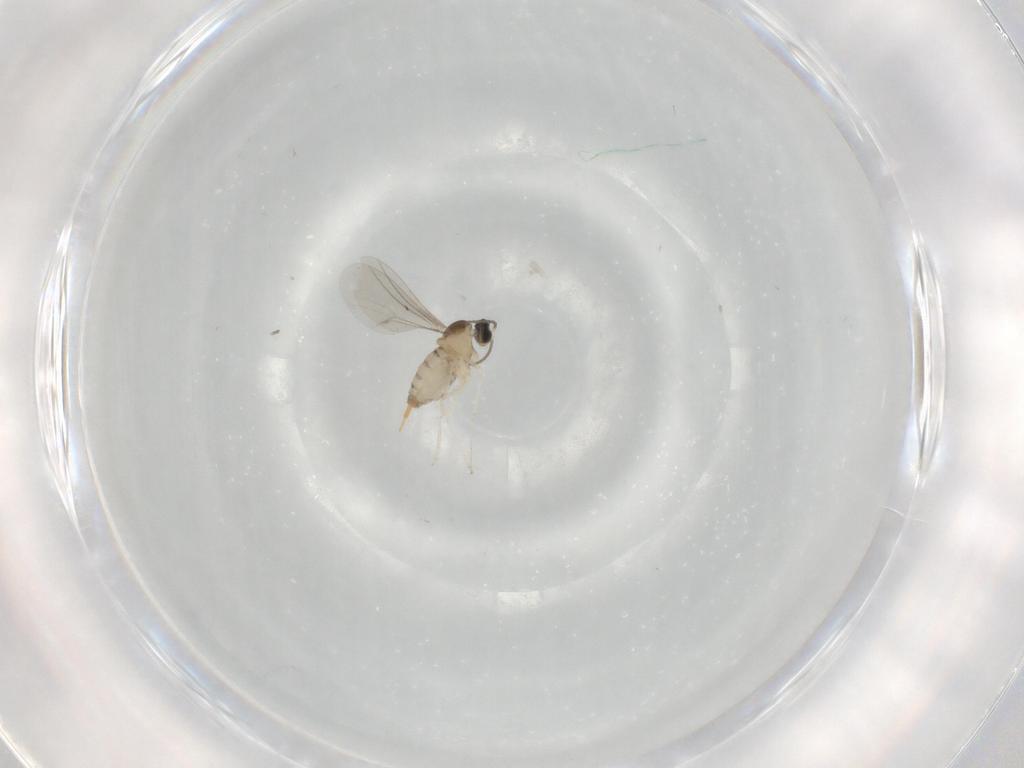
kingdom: Animalia
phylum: Arthropoda
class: Insecta
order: Diptera
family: Cecidomyiidae
